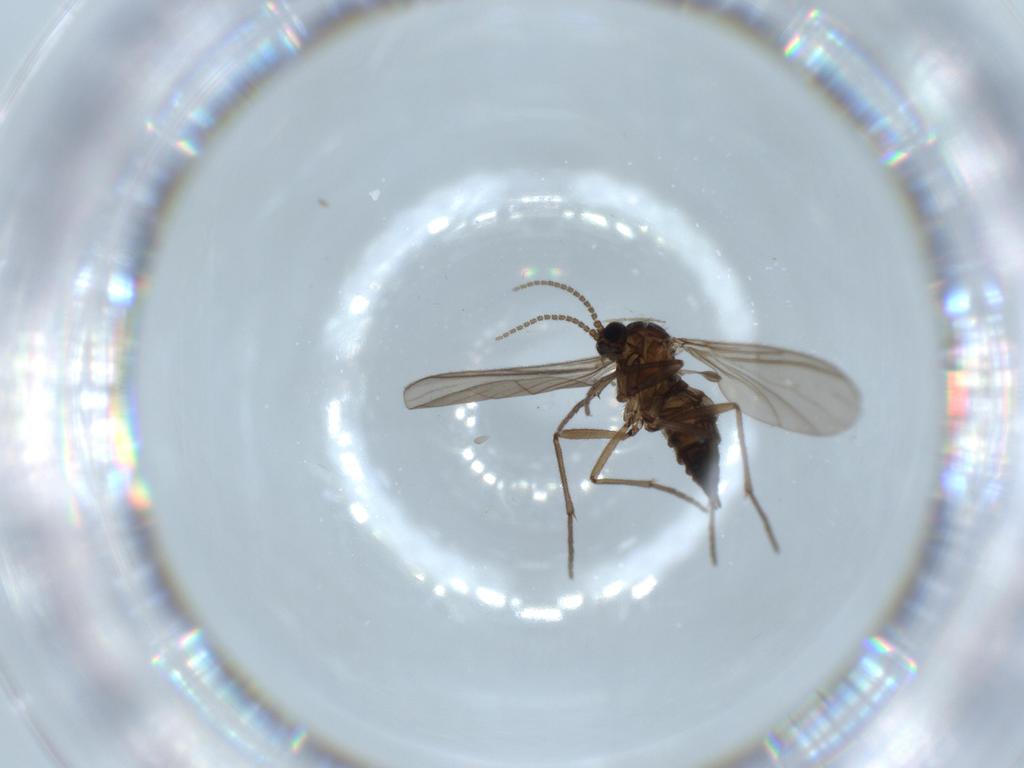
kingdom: Animalia
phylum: Arthropoda
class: Insecta
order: Diptera
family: Sciaridae
